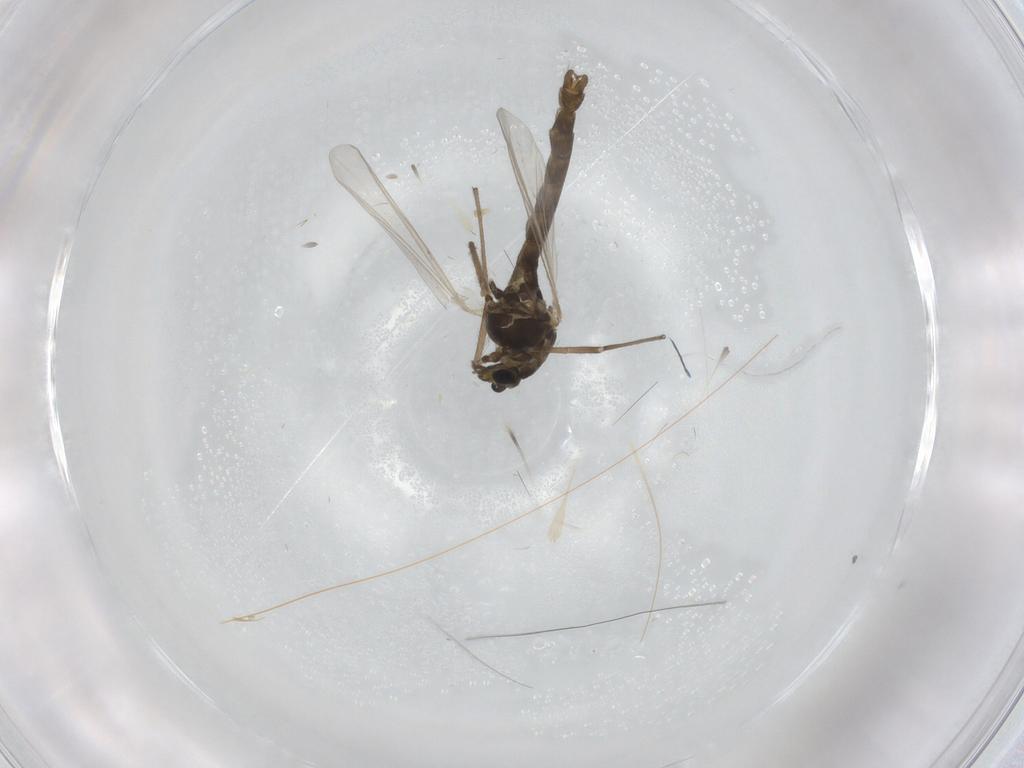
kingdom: Animalia
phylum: Arthropoda
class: Insecta
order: Diptera
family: Chironomidae
